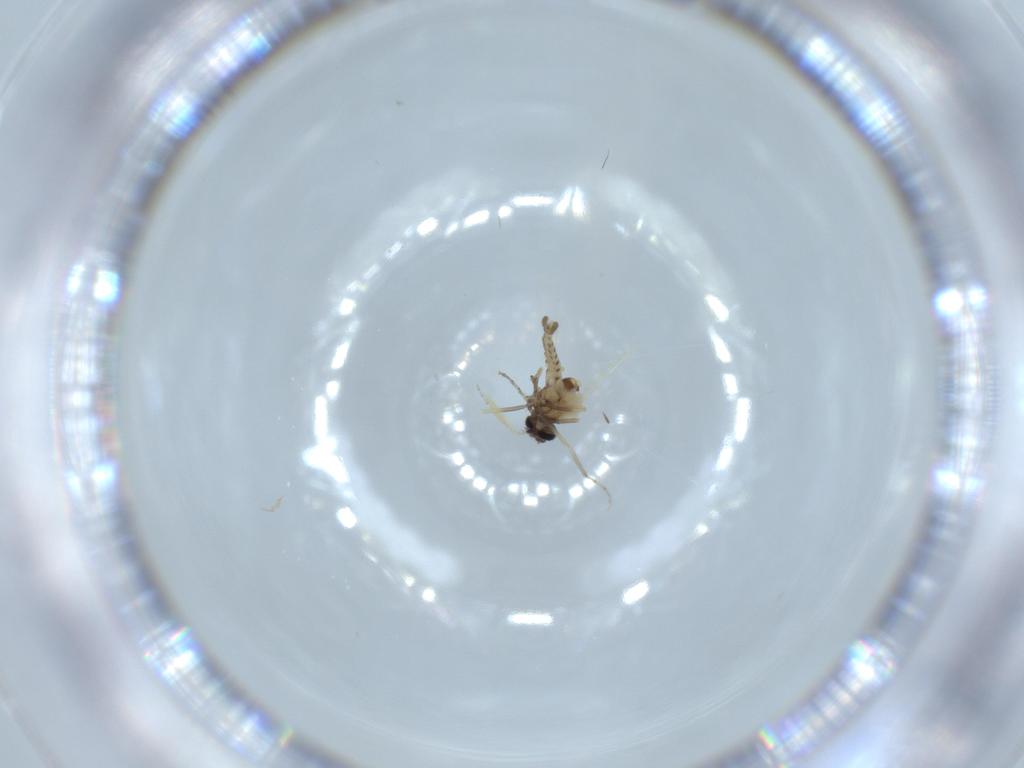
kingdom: Animalia
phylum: Arthropoda
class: Insecta
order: Diptera
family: Ceratopogonidae
